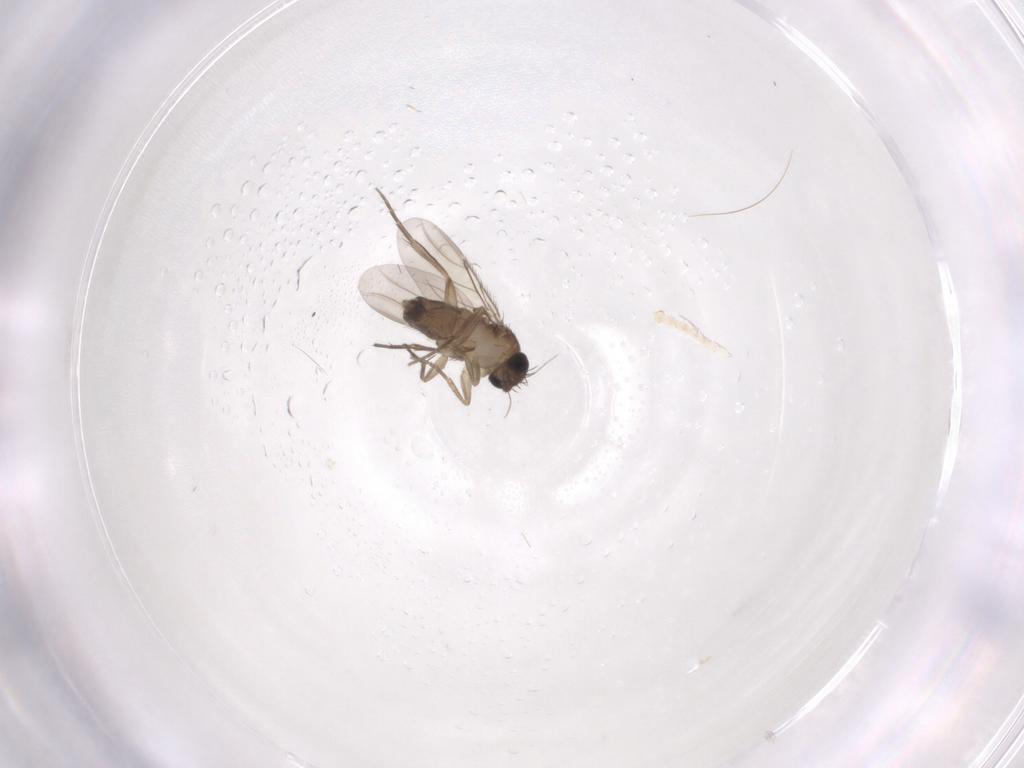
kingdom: Animalia
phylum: Arthropoda
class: Insecta
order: Diptera
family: Phoridae
